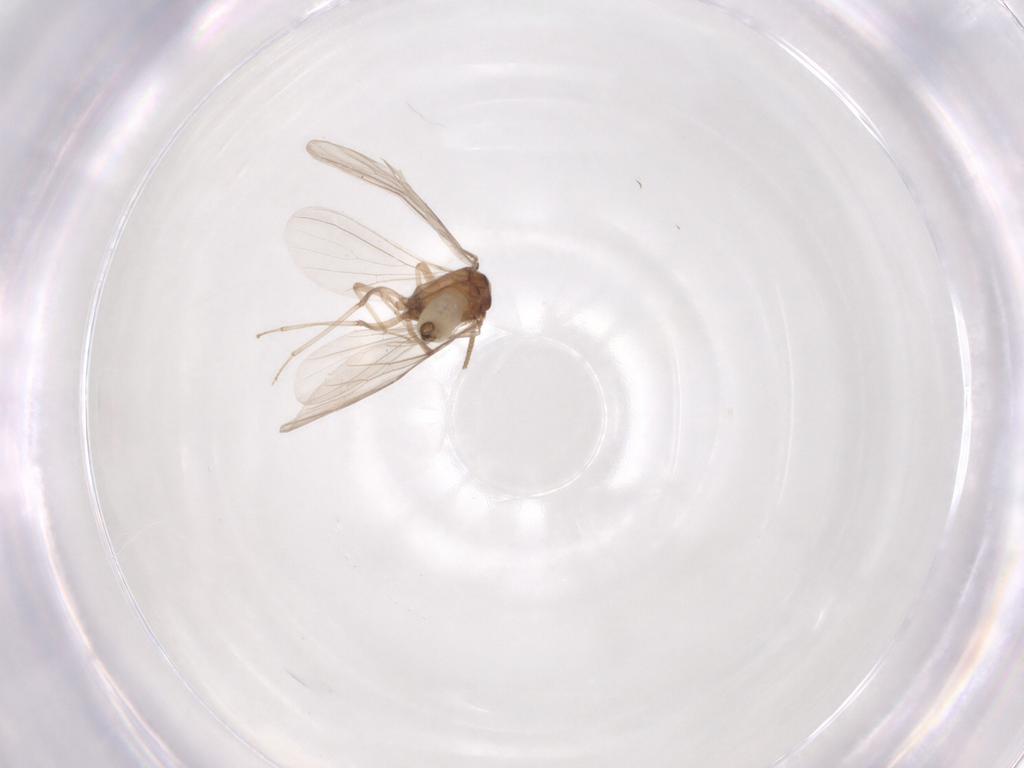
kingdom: Animalia
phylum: Arthropoda
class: Insecta
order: Neuroptera
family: Coniopterygidae
